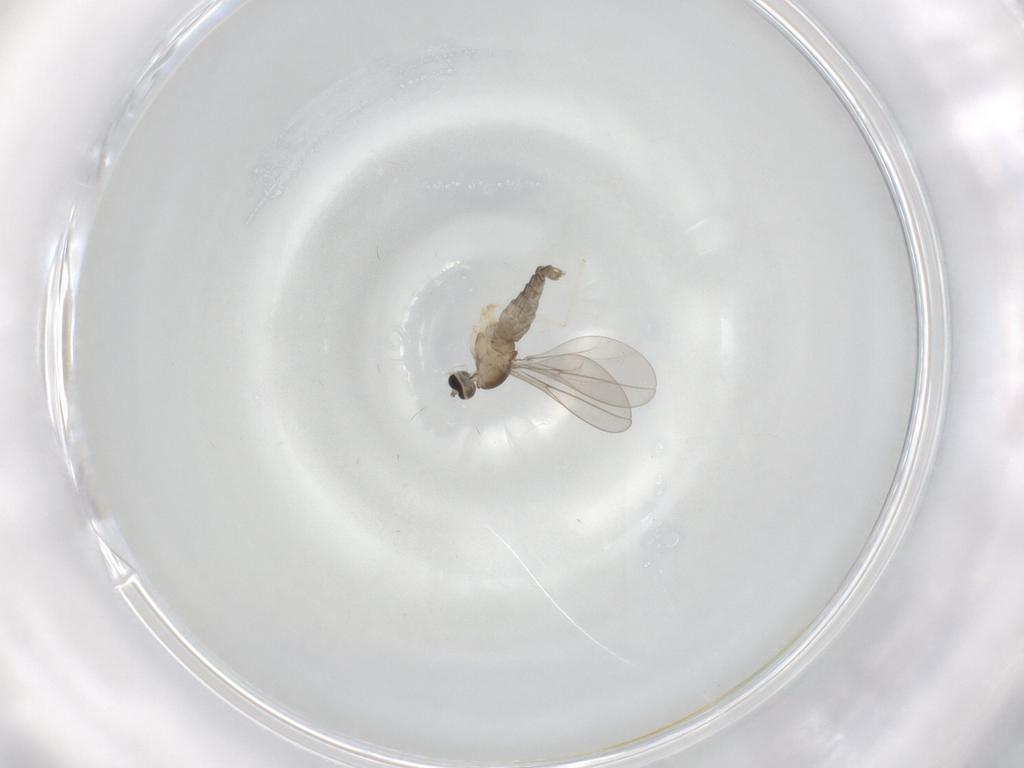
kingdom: Animalia
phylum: Arthropoda
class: Insecta
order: Diptera
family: Cecidomyiidae
